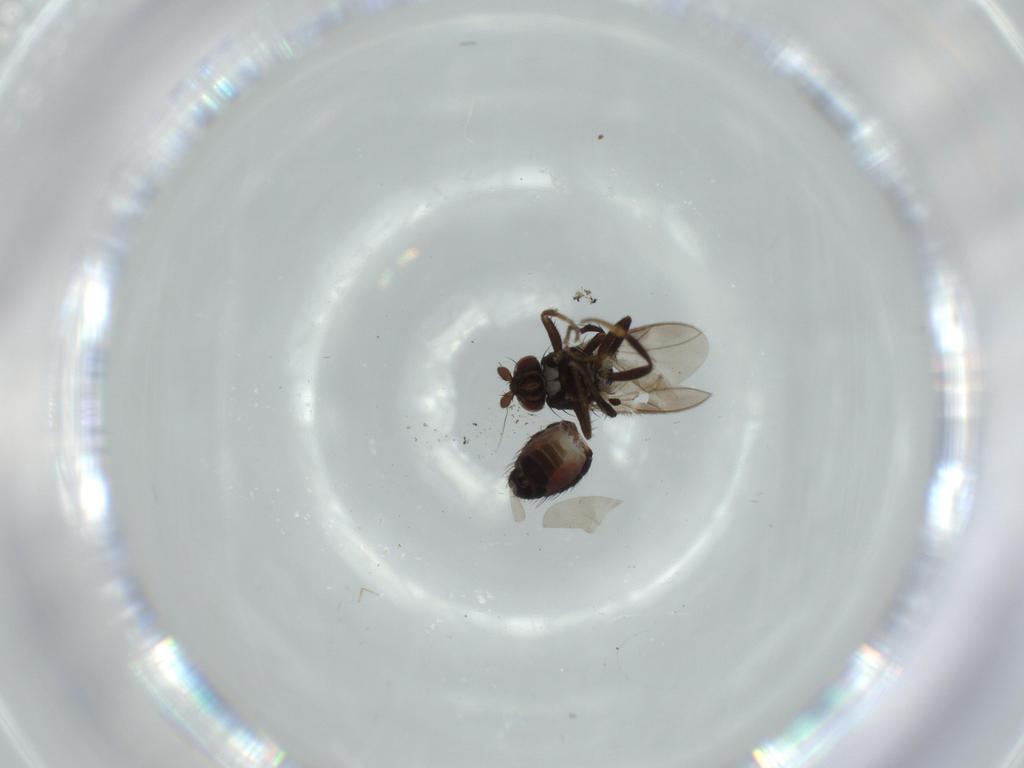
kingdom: Animalia
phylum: Arthropoda
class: Insecta
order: Diptera
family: Sphaeroceridae
